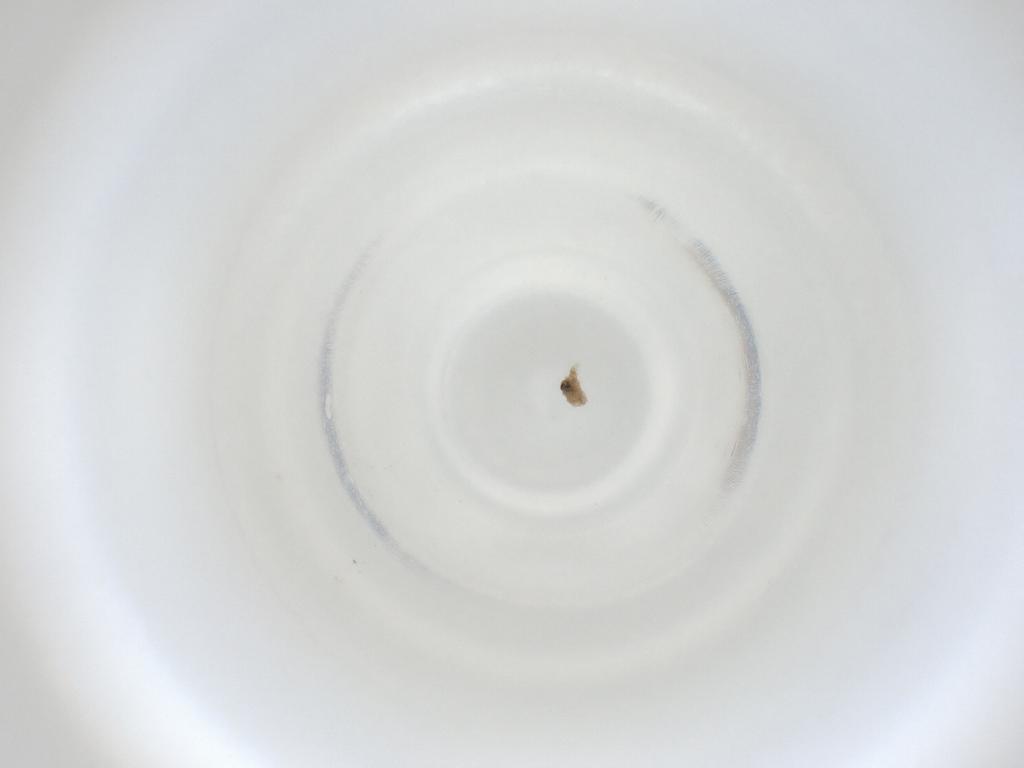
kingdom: Animalia
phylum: Arthropoda
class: Insecta
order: Diptera
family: Cecidomyiidae
